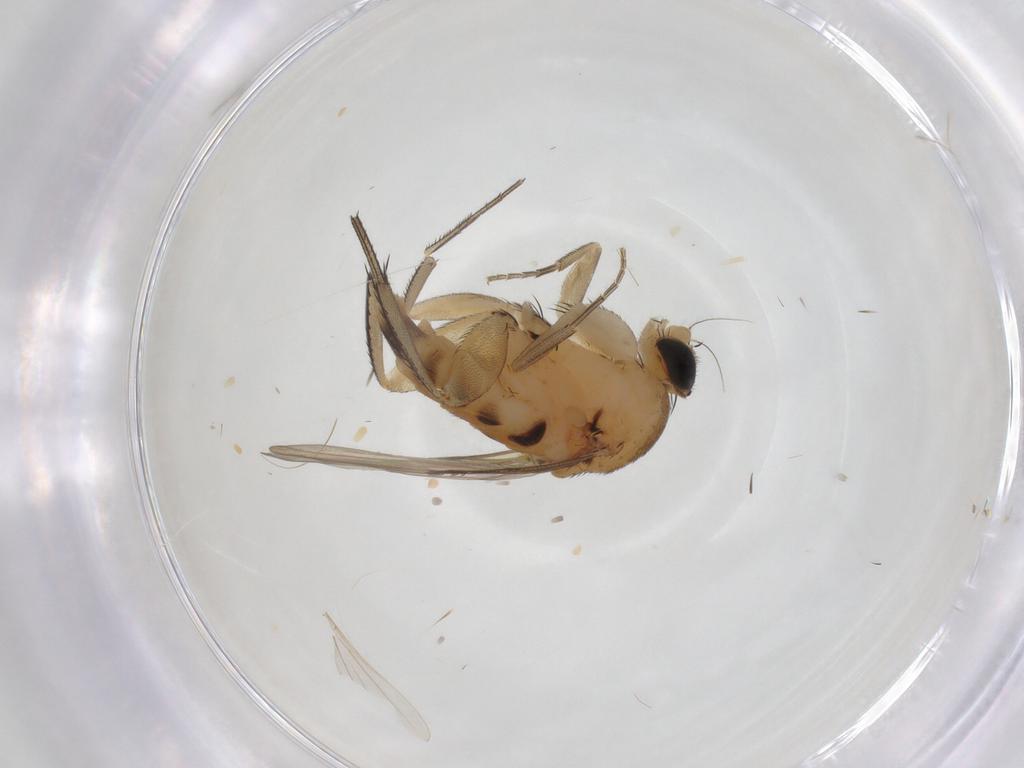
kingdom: Animalia
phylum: Arthropoda
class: Insecta
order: Diptera
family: Phoridae
